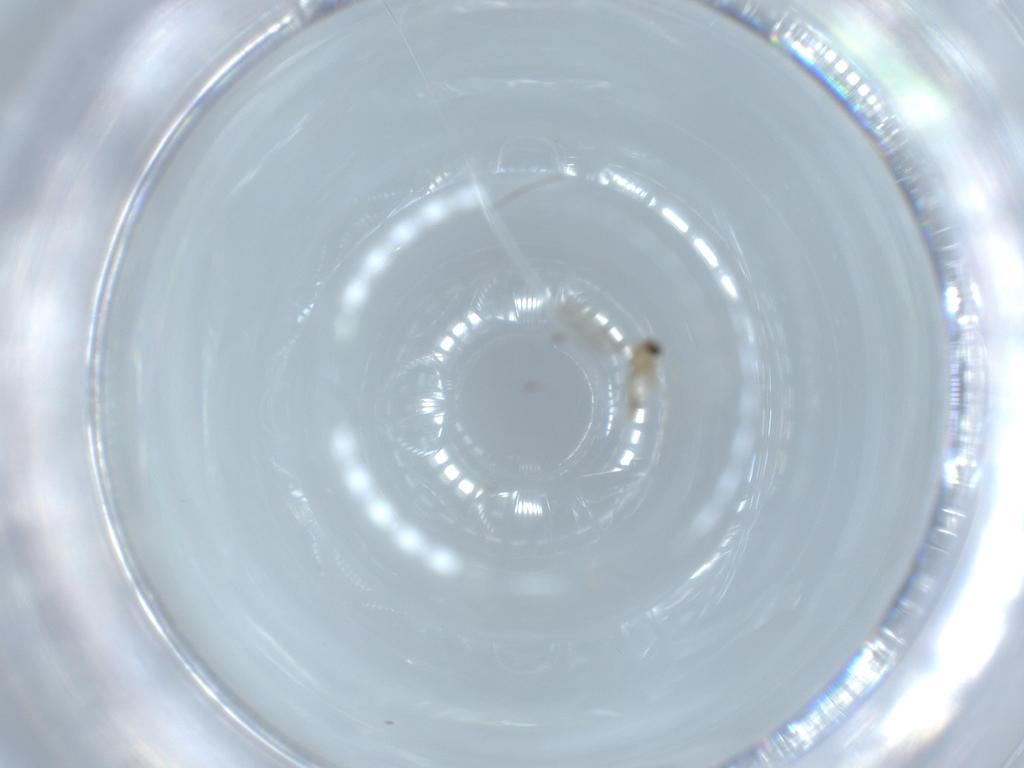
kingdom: Animalia
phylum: Arthropoda
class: Insecta
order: Diptera
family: Cecidomyiidae
